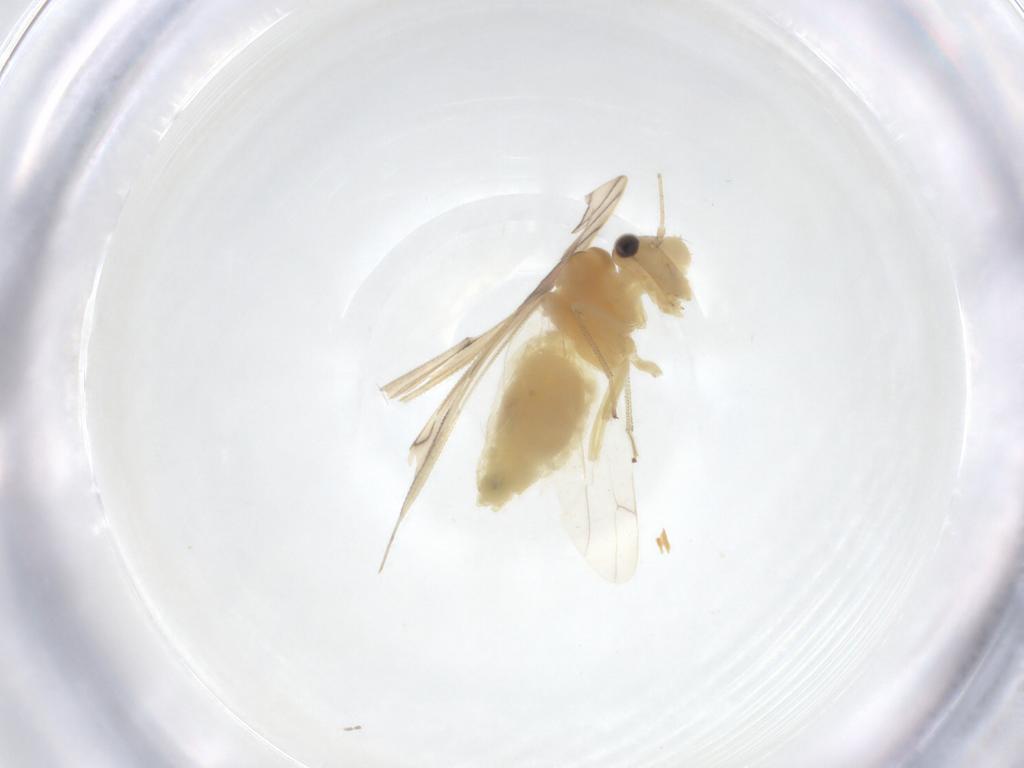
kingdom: Animalia
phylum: Arthropoda
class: Insecta
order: Psocodea
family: Caeciliusidae
